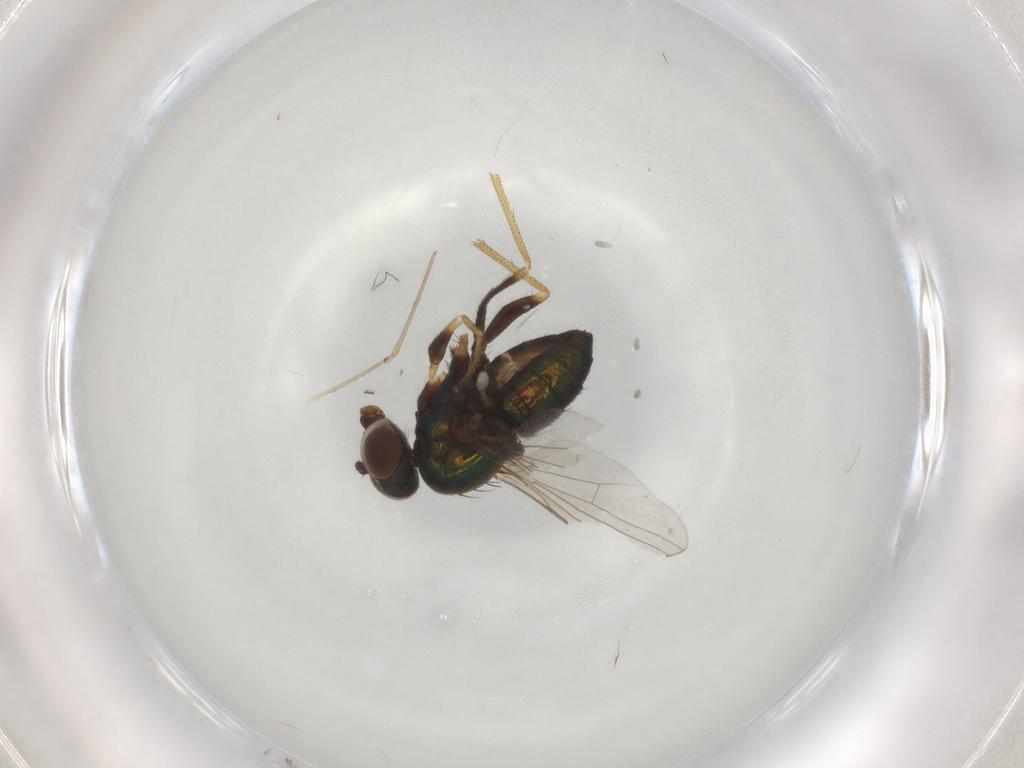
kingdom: Animalia
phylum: Arthropoda
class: Insecta
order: Diptera
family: Dolichopodidae
